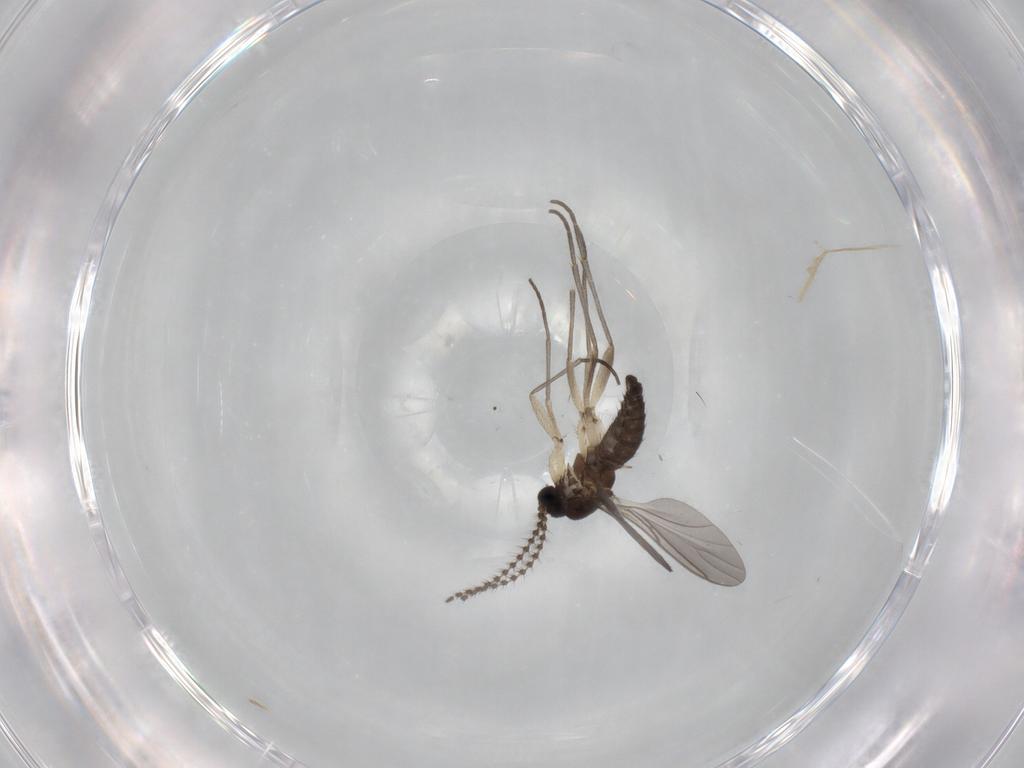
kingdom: Animalia
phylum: Arthropoda
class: Insecta
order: Diptera
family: Sciaridae
